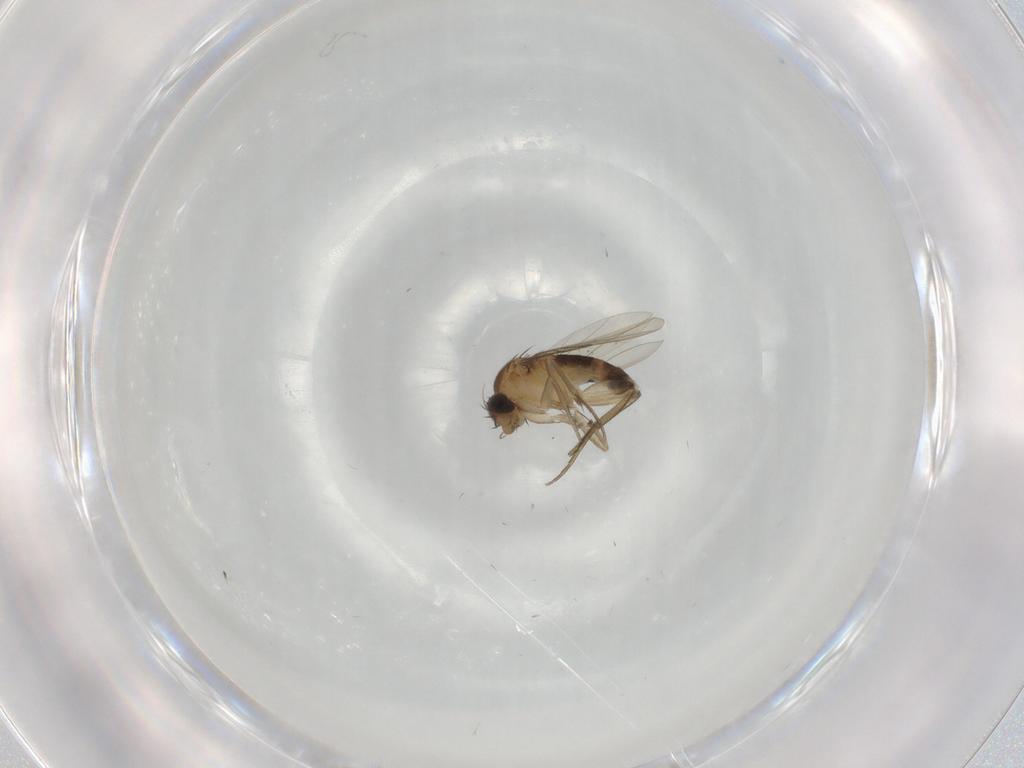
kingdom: Animalia
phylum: Arthropoda
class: Insecta
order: Diptera
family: Phoridae
